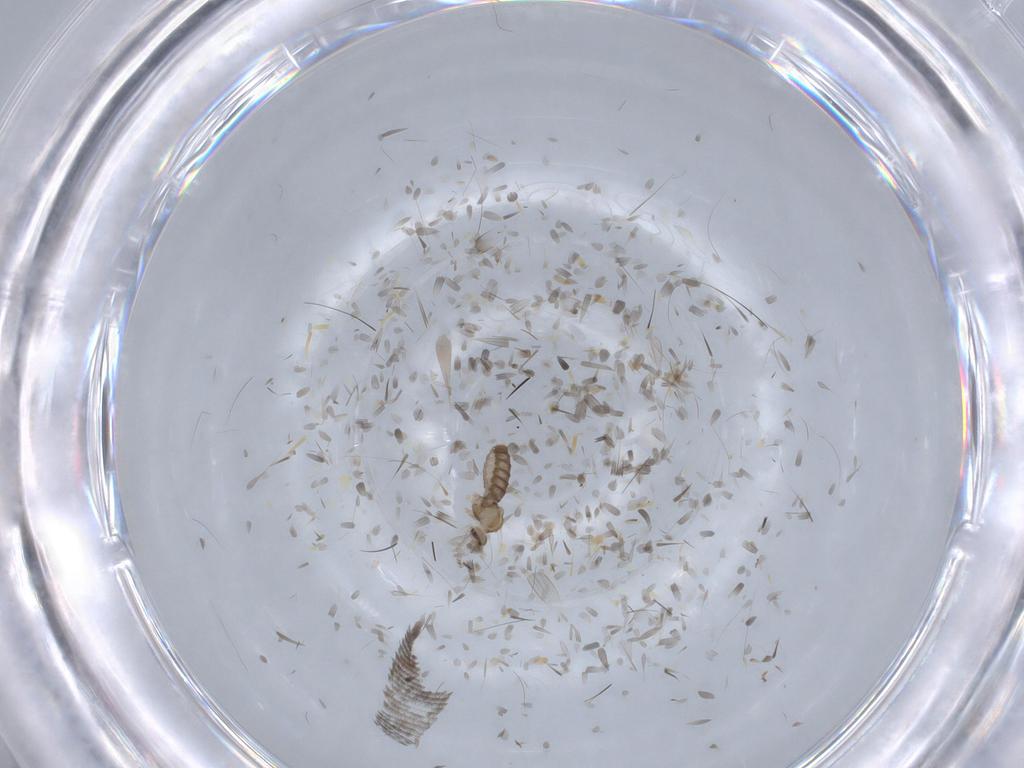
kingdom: Animalia
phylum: Arthropoda
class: Insecta
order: Diptera
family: Cecidomyiidae
